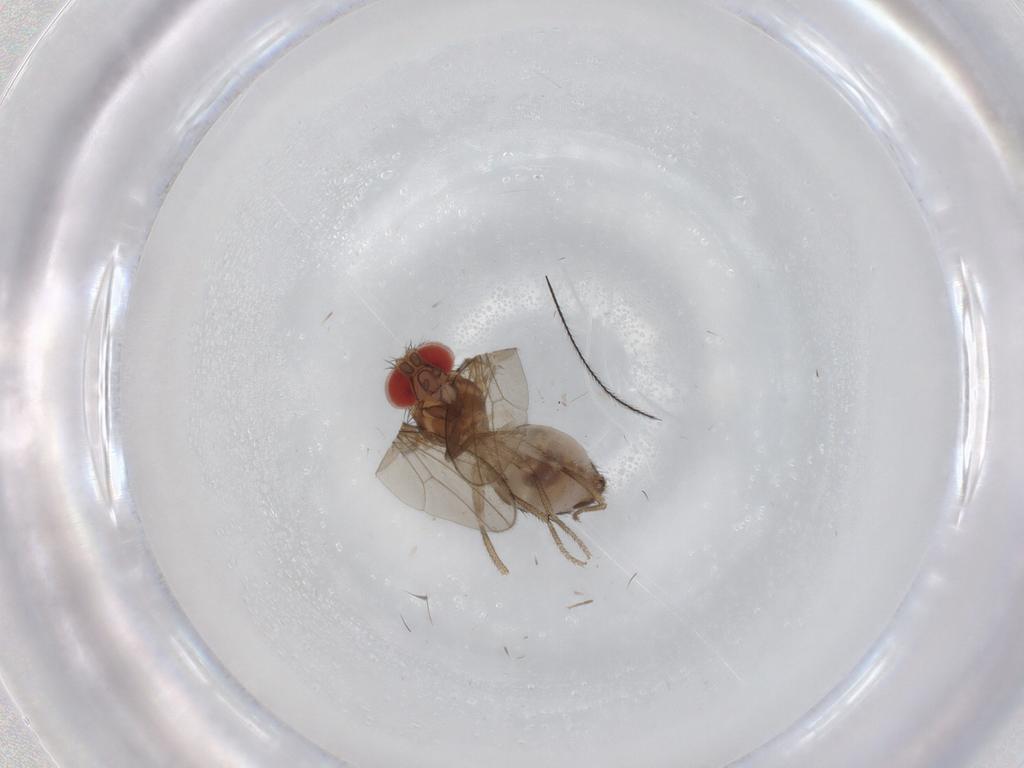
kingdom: Animalia
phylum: Arthropoda
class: Insecta
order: Diptera
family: Drosophilidae
